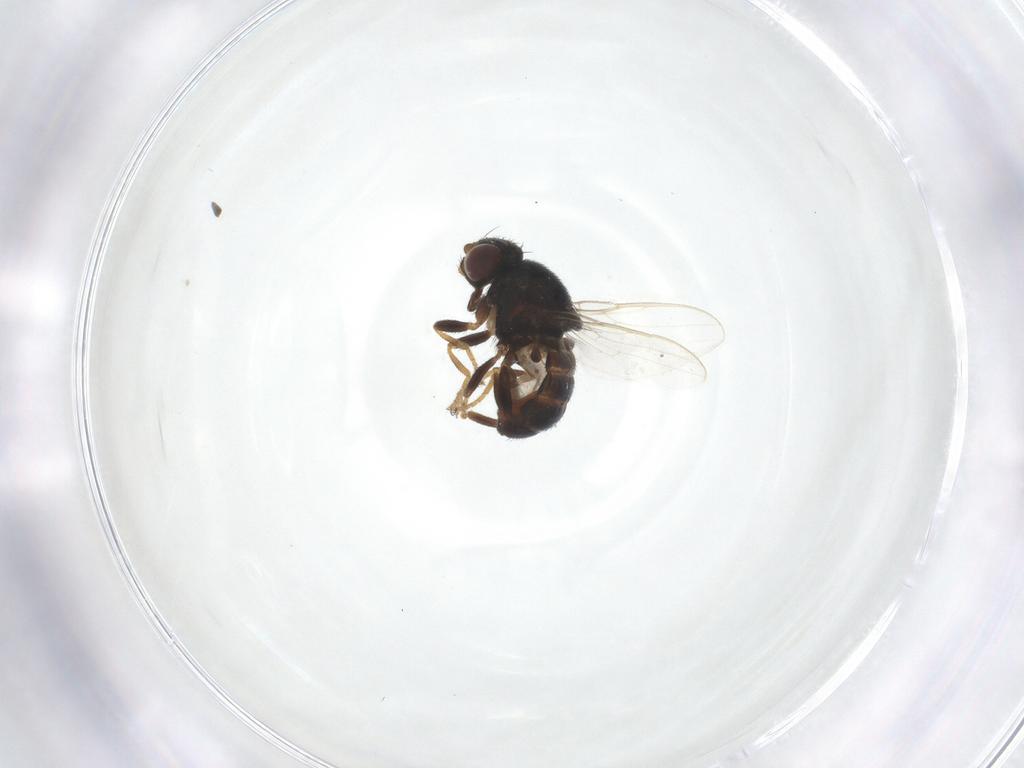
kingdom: Animalia
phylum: Arthropoda
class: Insecta
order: Diptera
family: Chloropidae
